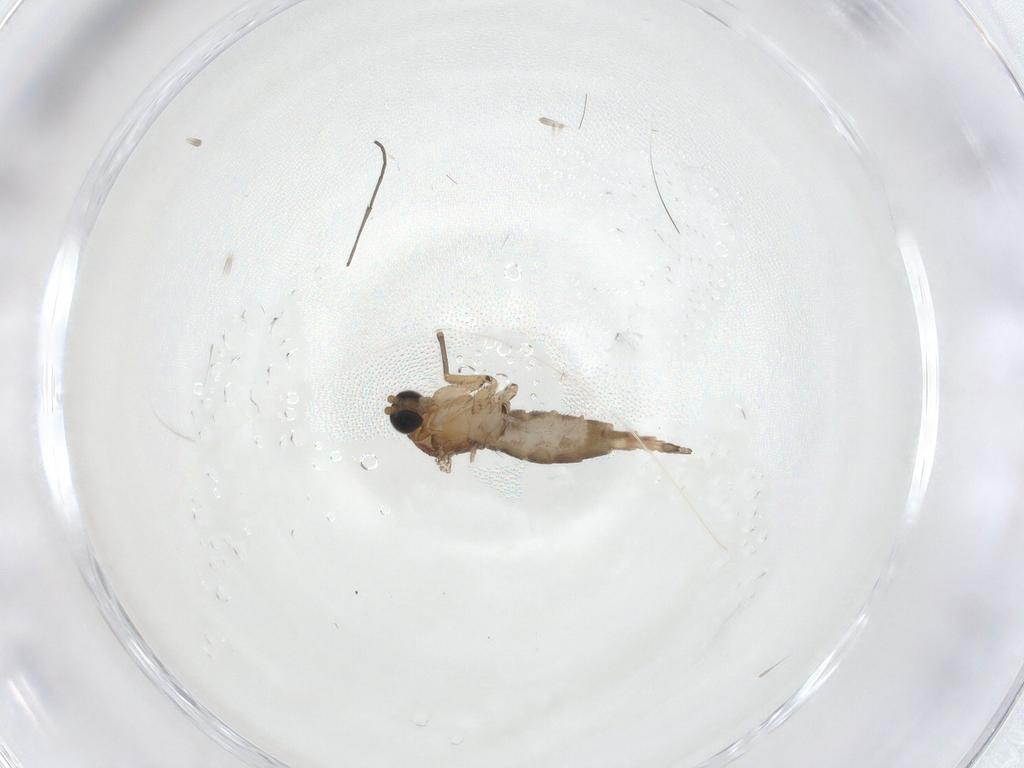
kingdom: Animalia
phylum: Arthropoda
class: Insecta
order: Diptera
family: Sciaridae
